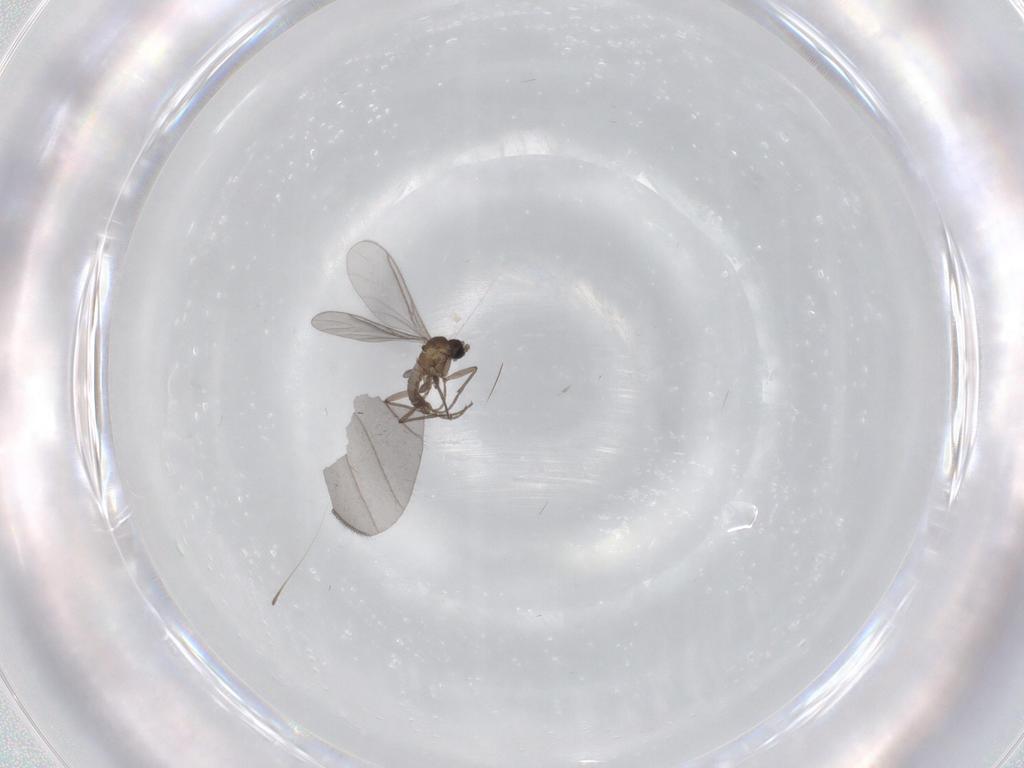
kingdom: Animalia
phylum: Arthropoda
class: Insecta
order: Diptera
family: Sciaridae
